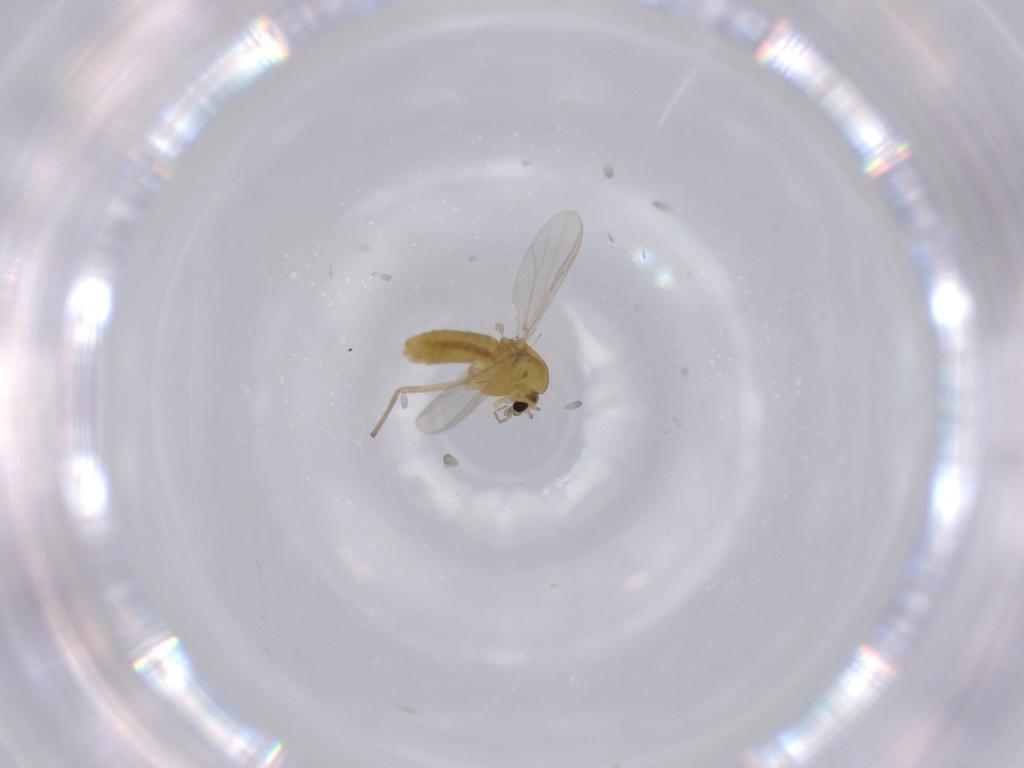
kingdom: Animalia
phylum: Arthropoda
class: Insecta
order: Diptera
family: Chironomidae
